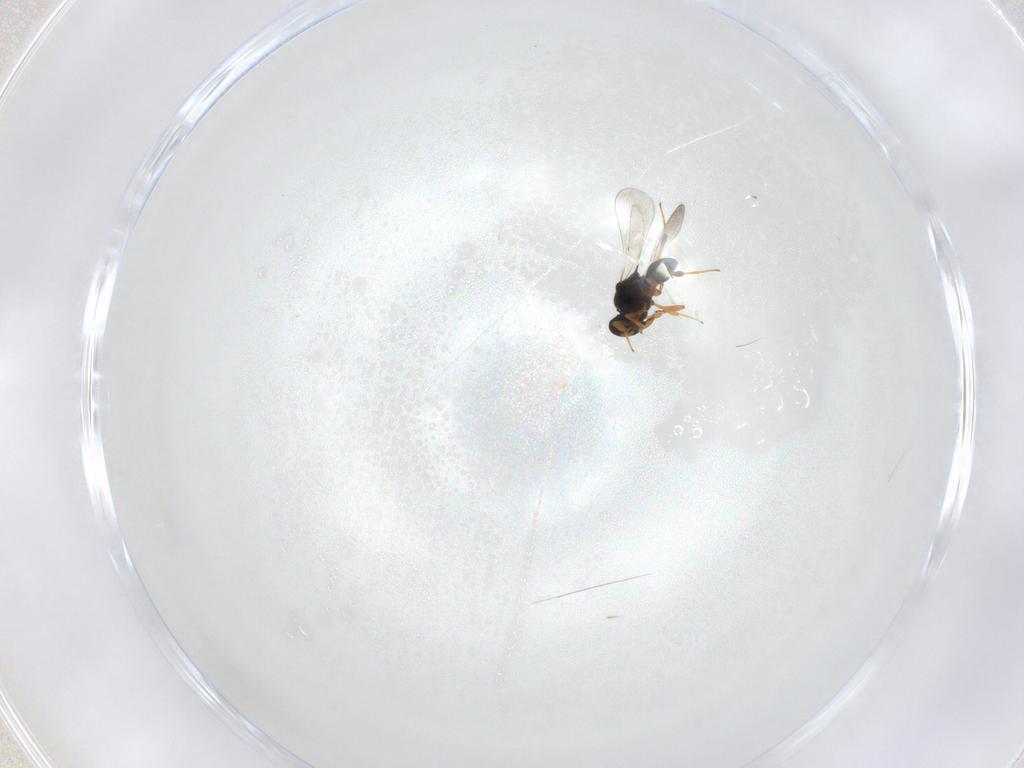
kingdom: Animalia
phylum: Arthropoda
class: Insecta
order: Hymenoptera
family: Platygastridae
